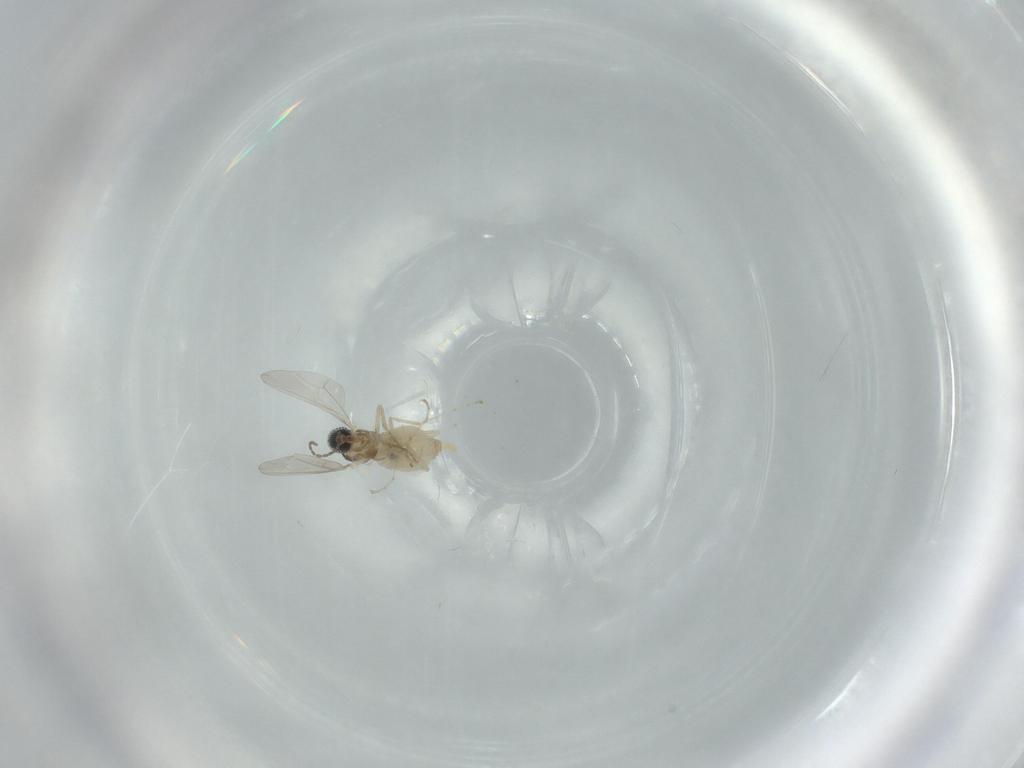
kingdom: Animalia
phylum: Arthropoda
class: Insecta
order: Diptera
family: Cecidomyiidae
